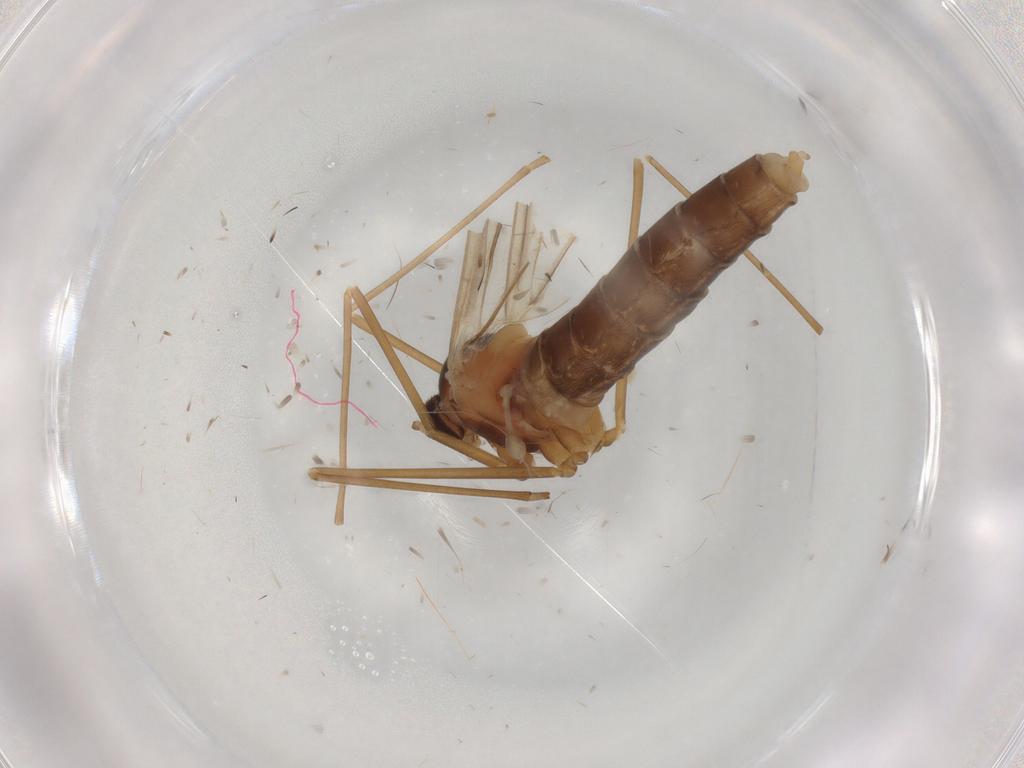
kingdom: Animalia
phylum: Arthropoda
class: Insecta
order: Diptera
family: Cecidomyiidae
